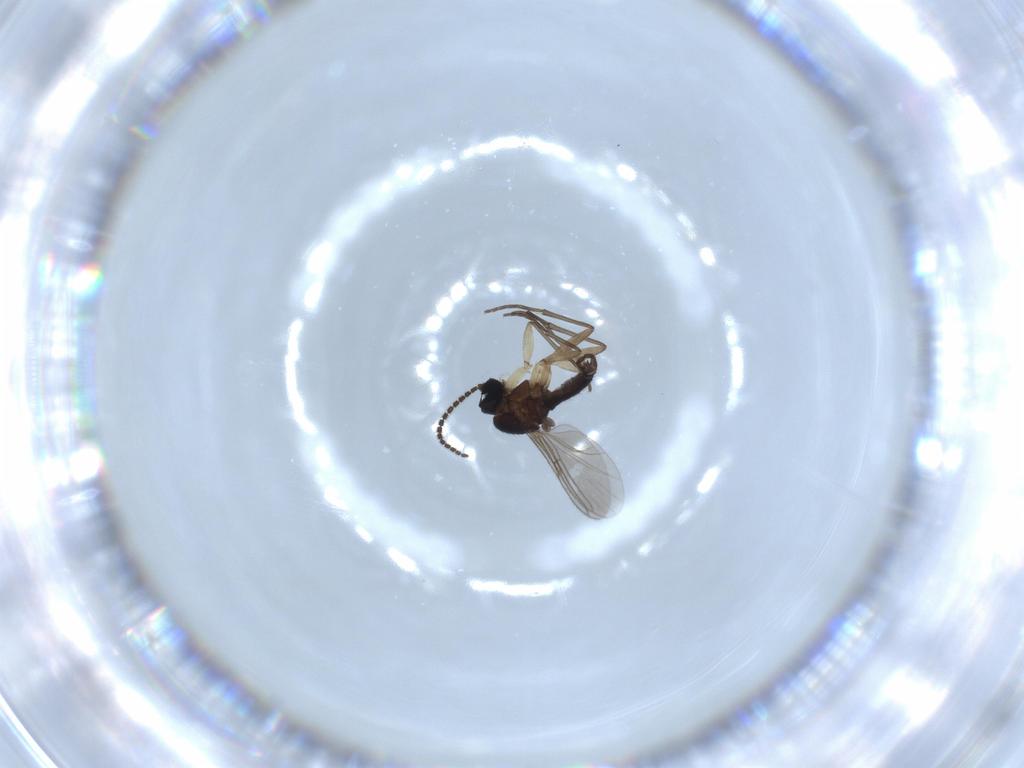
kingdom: Animalia
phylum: Arthropoda
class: Insecta
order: Diptera
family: Sciaridae
